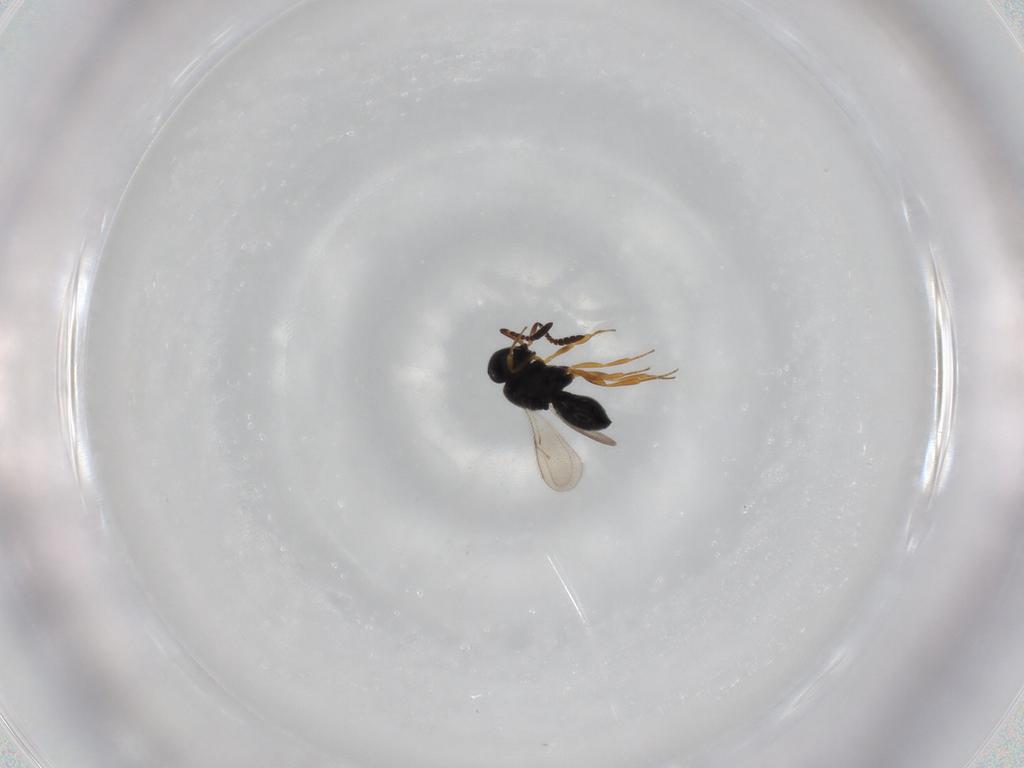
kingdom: Animalia
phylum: Arthropoda
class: Insecta
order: Hymenoptera
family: Scelionidae
